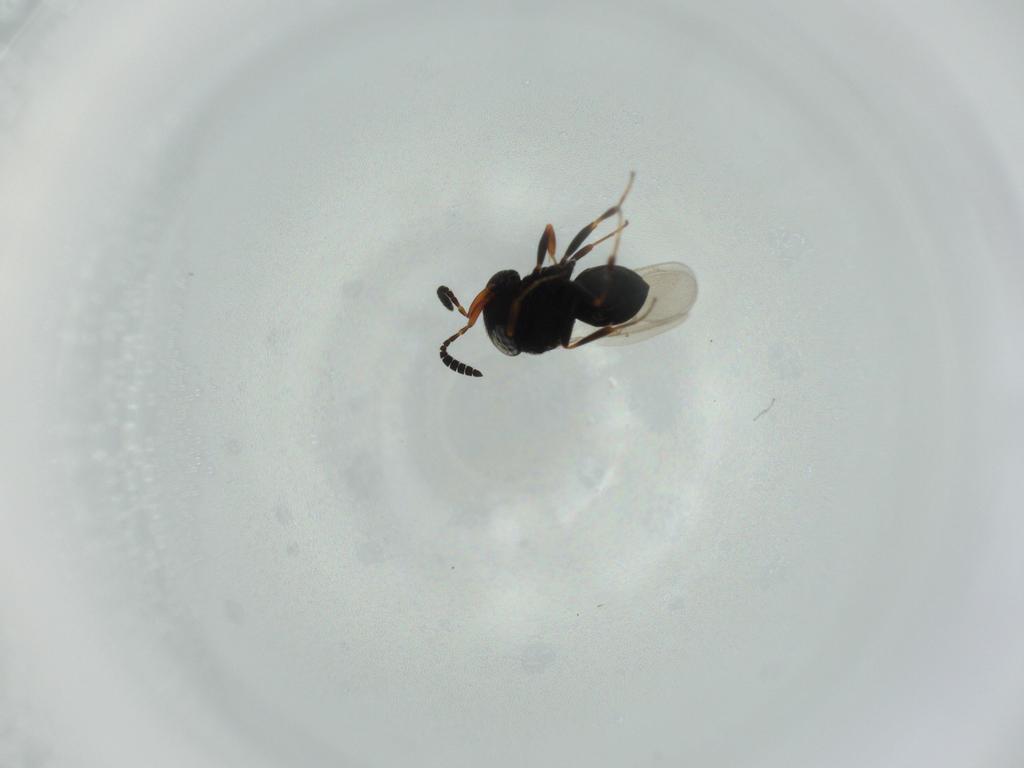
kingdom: Animalia
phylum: Arthropoda
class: Insecta
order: Hymenoptera
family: Scelionidae
